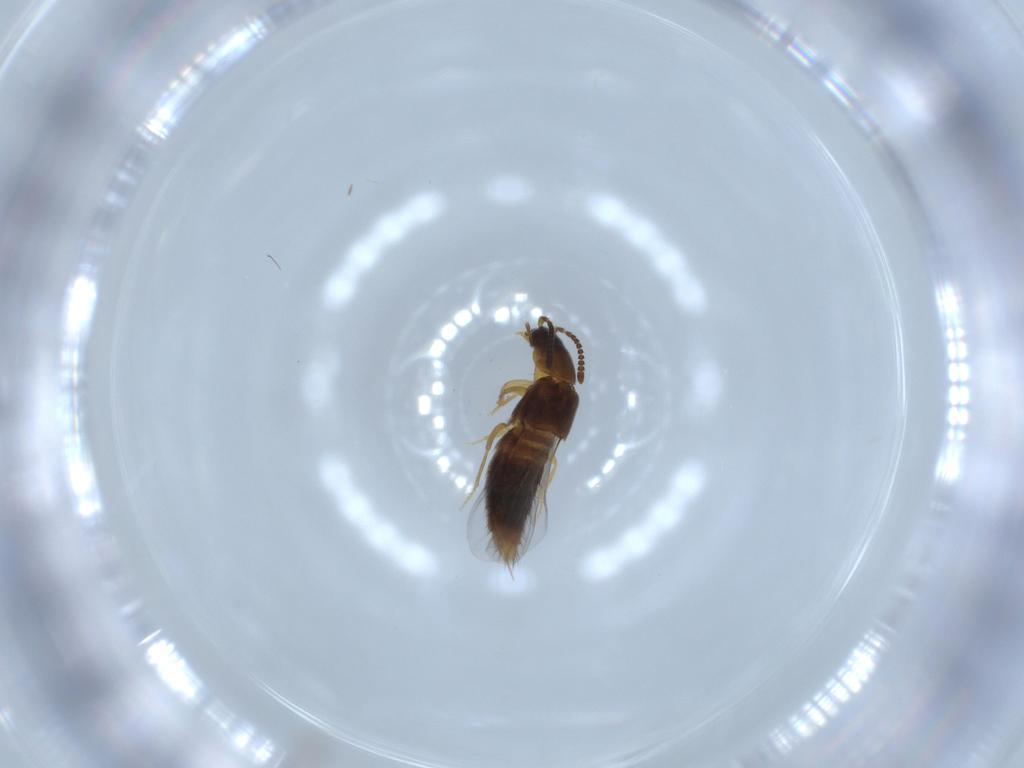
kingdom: Animalia
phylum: Arthropoda
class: Insecta
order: Coleoptera
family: Staphylinidae
